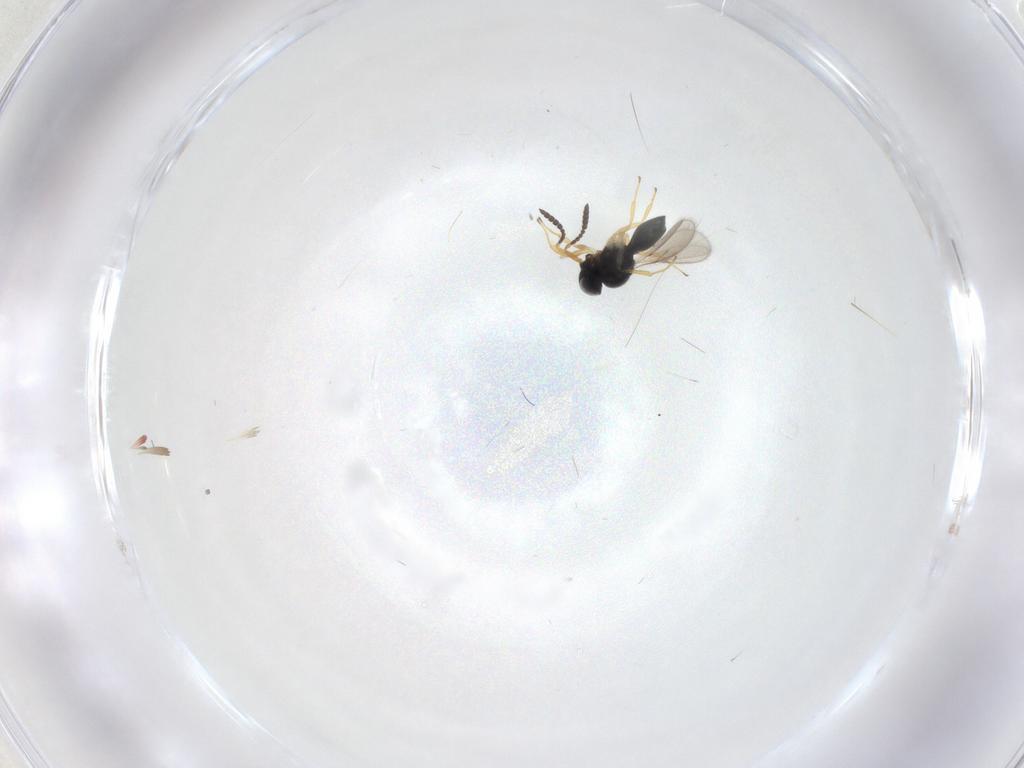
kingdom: Animalia
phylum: Arthropoda
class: Insecta
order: Hymenoptera
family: Scelionidae
